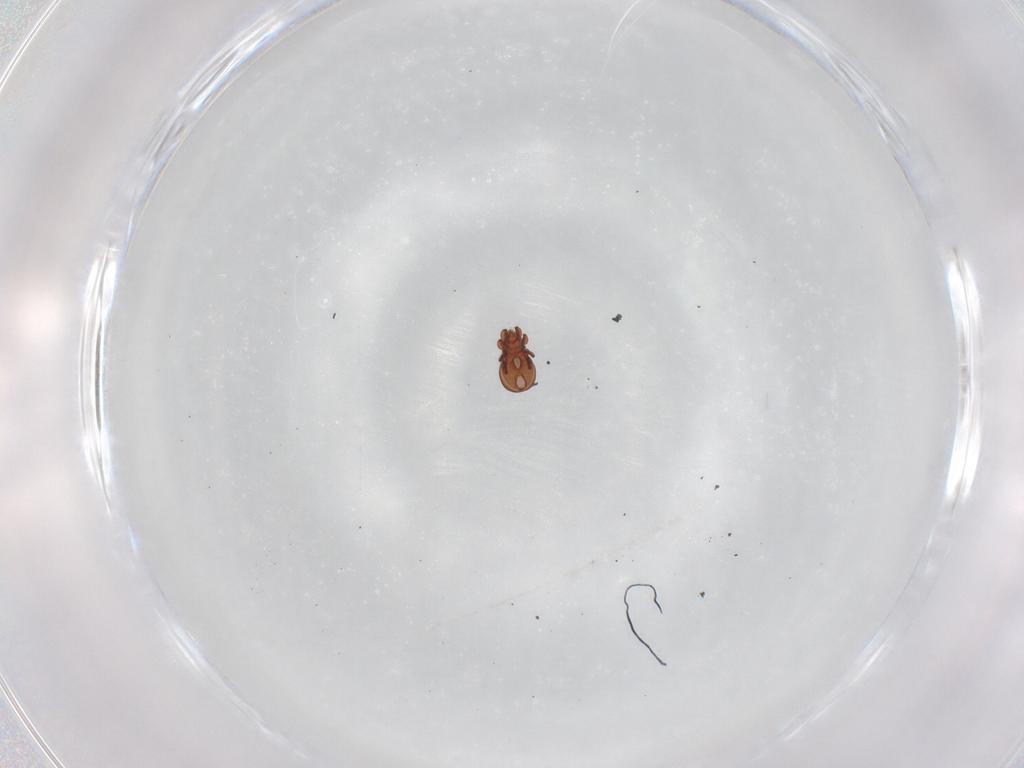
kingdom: Animalia
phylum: Arthropoda
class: Arachnida
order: Sarcoptiformes
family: Eremaeidae
